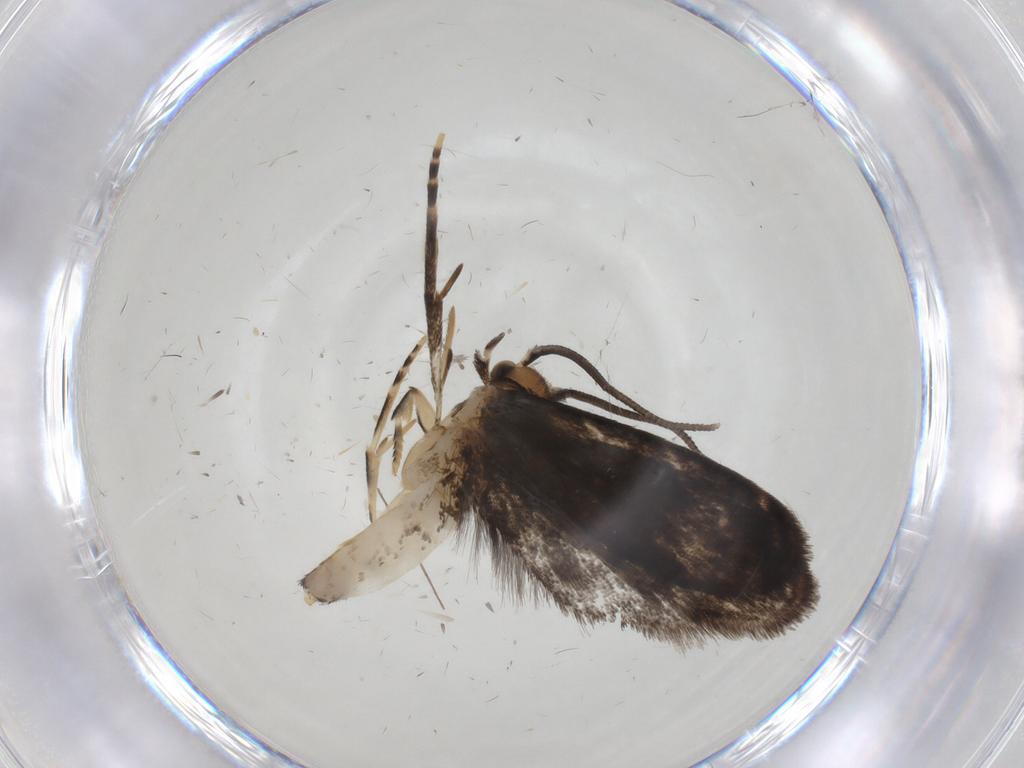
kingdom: Animalia
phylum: Arthropoda
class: Insecta
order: Lepidoptera
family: Dryadaulidae
